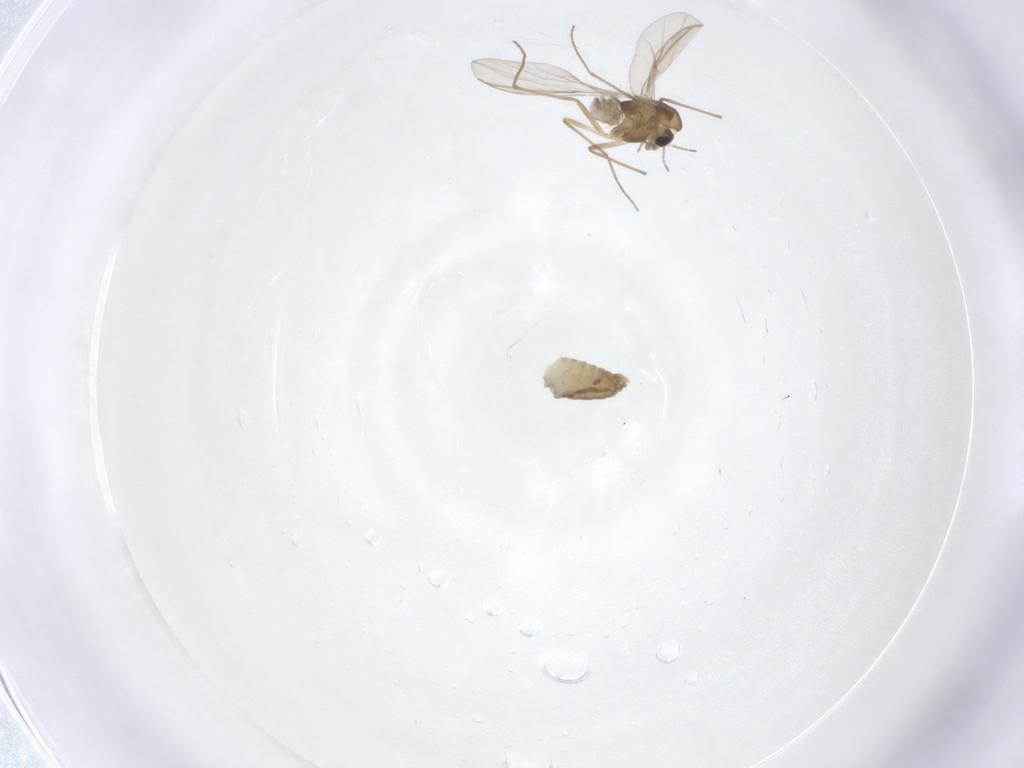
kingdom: Animalia
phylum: Arthropoda
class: Insecta
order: Diptera
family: Chironomidae
